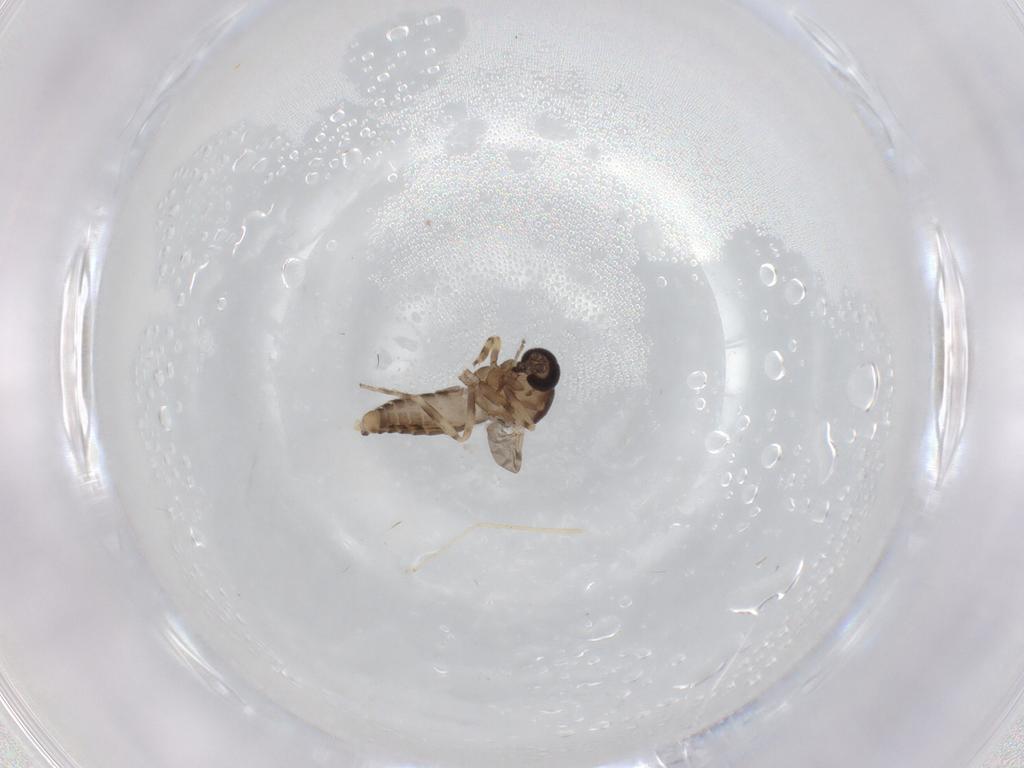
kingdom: Animalia
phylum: Arthropoda
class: Insecta
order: Diptera
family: Ceratopogonidae
